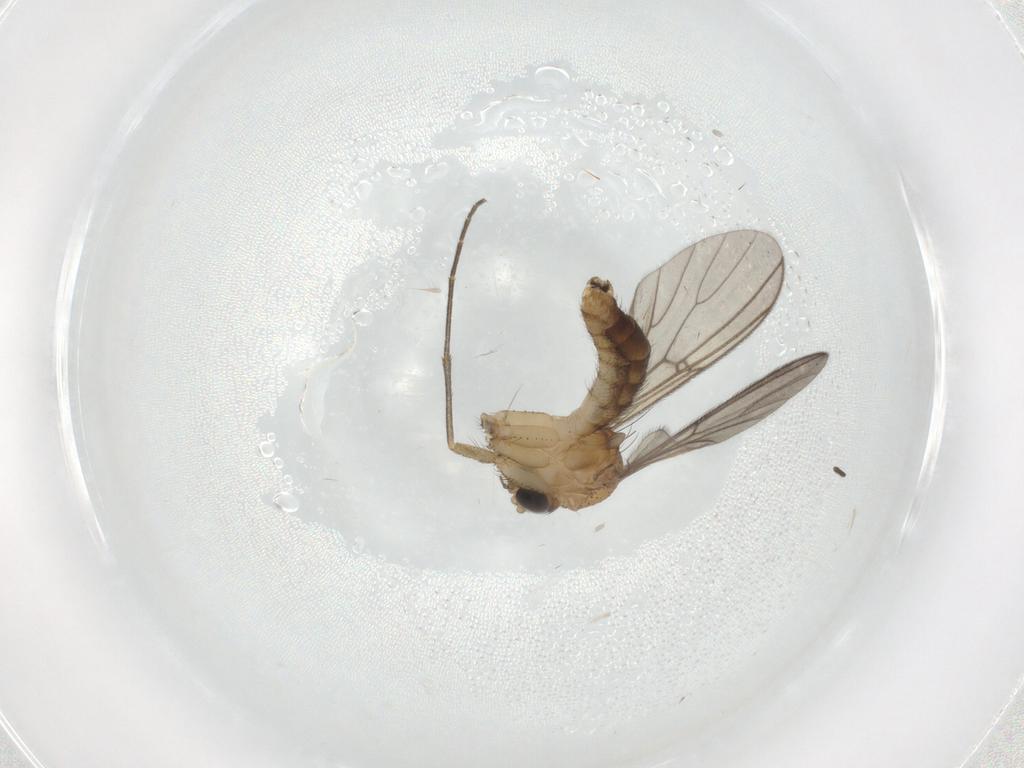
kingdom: Animalia
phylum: Arthropoda
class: Insecta
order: Diptera
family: Mycetophilidae
